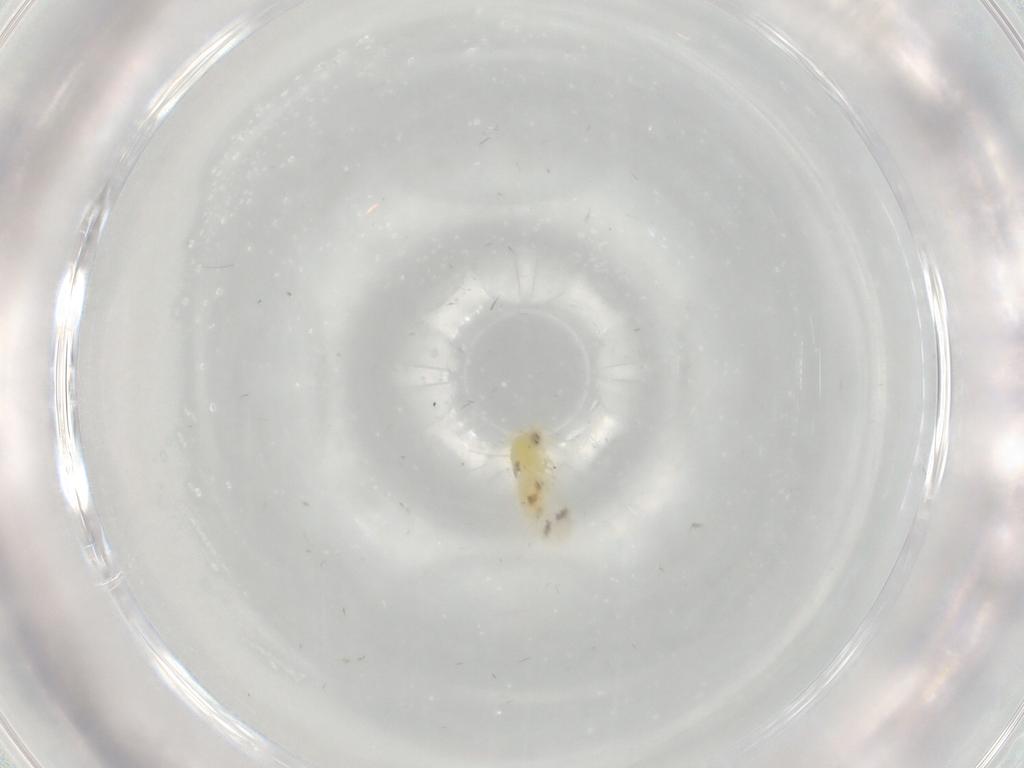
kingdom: Animalia
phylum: Arthropoda
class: Insecta
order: Hemiptera
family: Aleyrodidae
